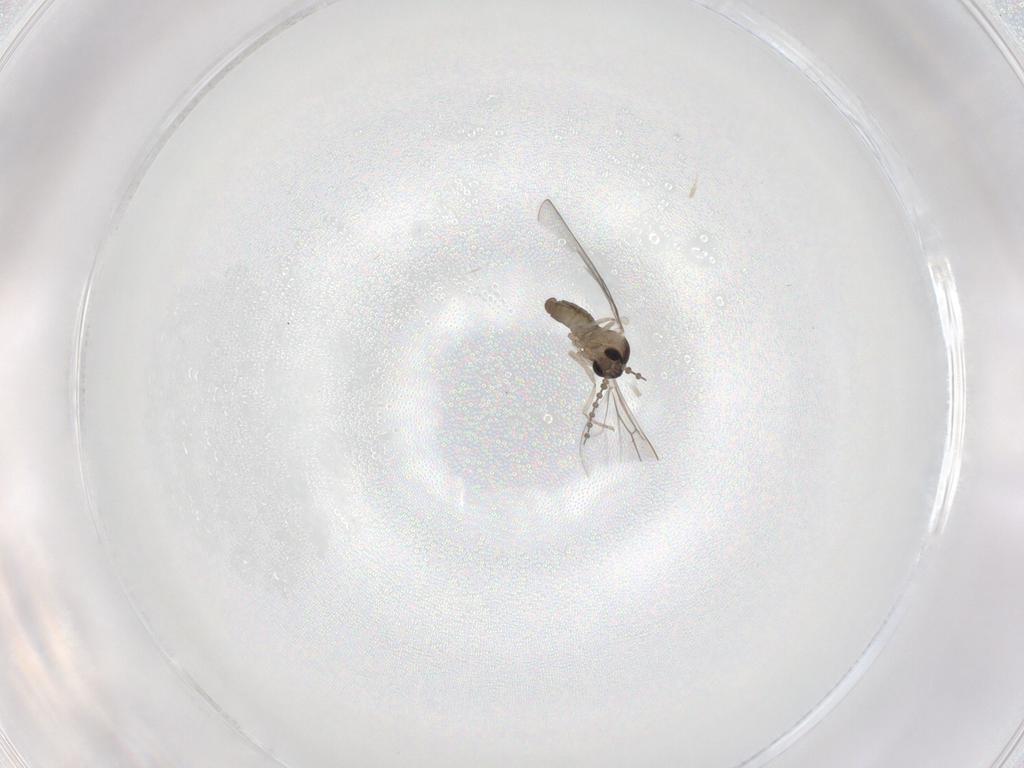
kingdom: Animalia
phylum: Arthropoda
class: Insecta
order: Diptera
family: Cecidomyiidae
